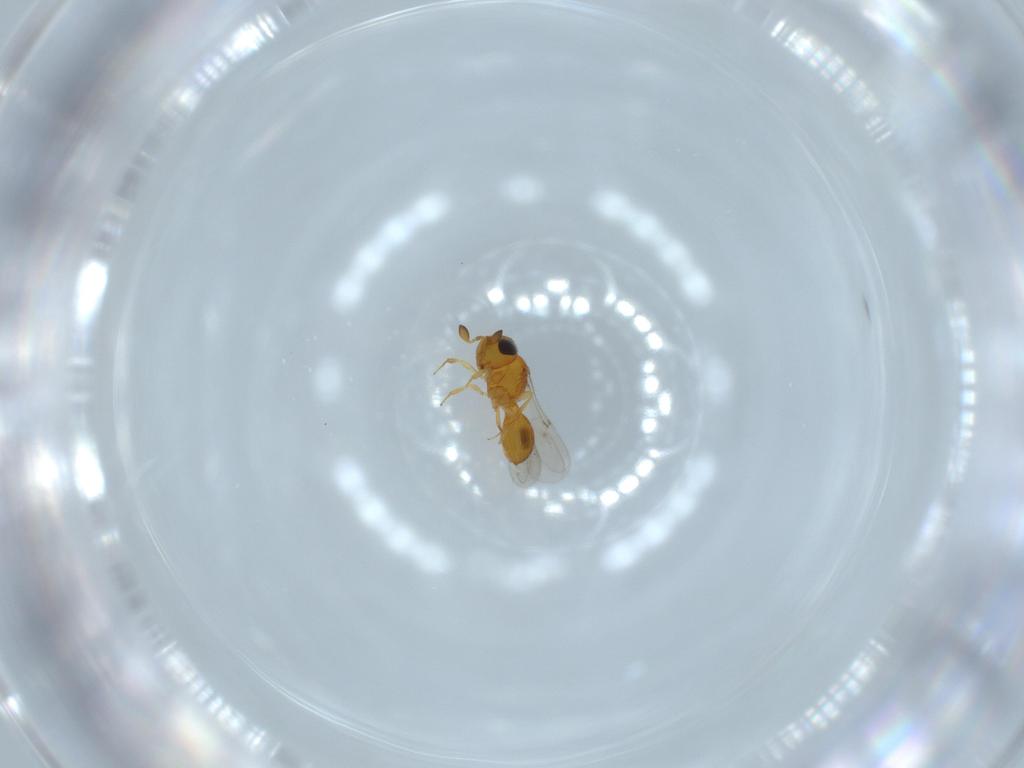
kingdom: Animalia
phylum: Arthropoda
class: Insecta
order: Hymenoptera
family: Scelionidae
